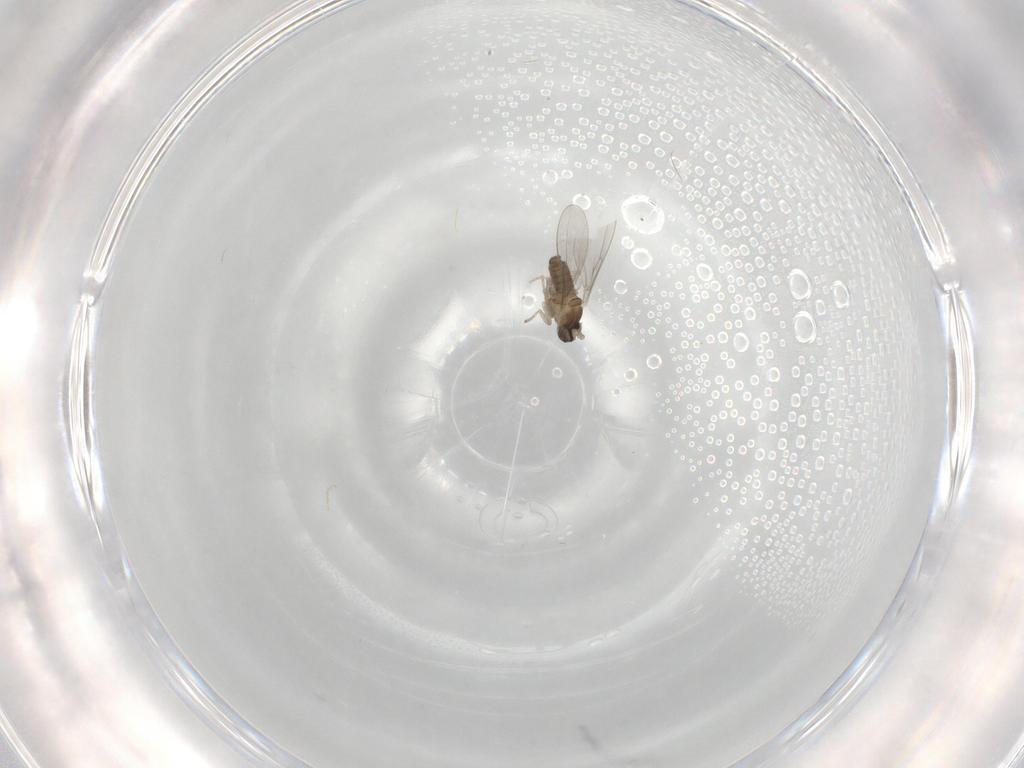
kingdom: Animalia
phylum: Arthropoda
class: Insecta
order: Diptera
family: Cecidomyiidae
